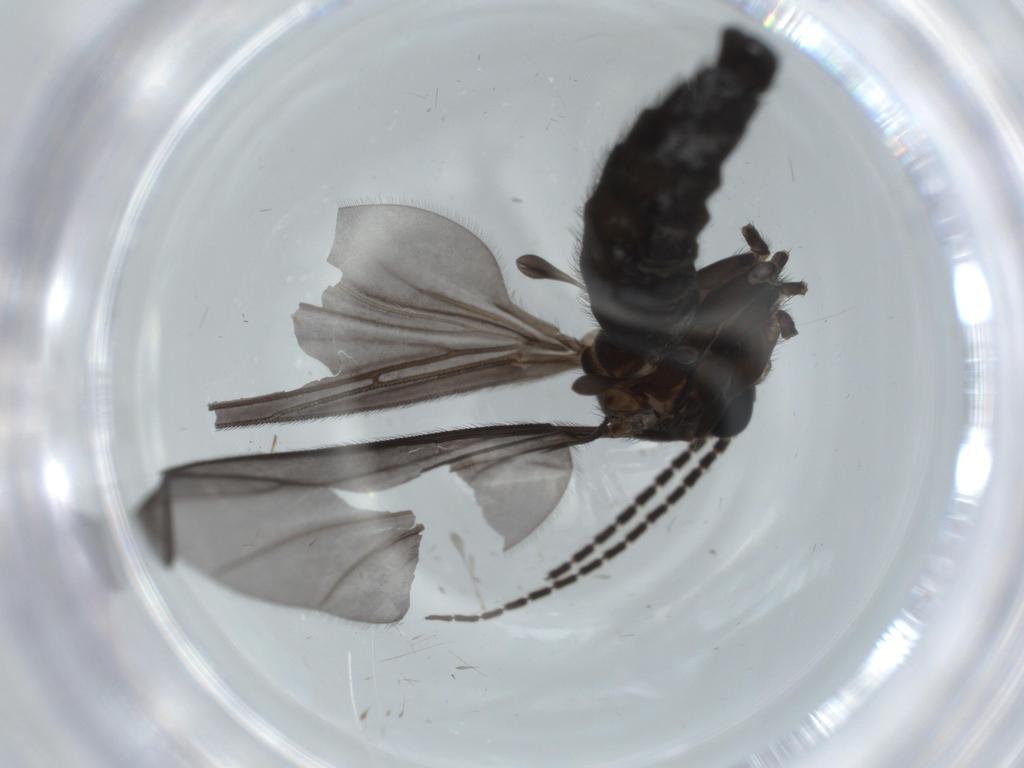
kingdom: Animalia
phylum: Arthropoda
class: Insecta
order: Diptera
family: Sciaridae
